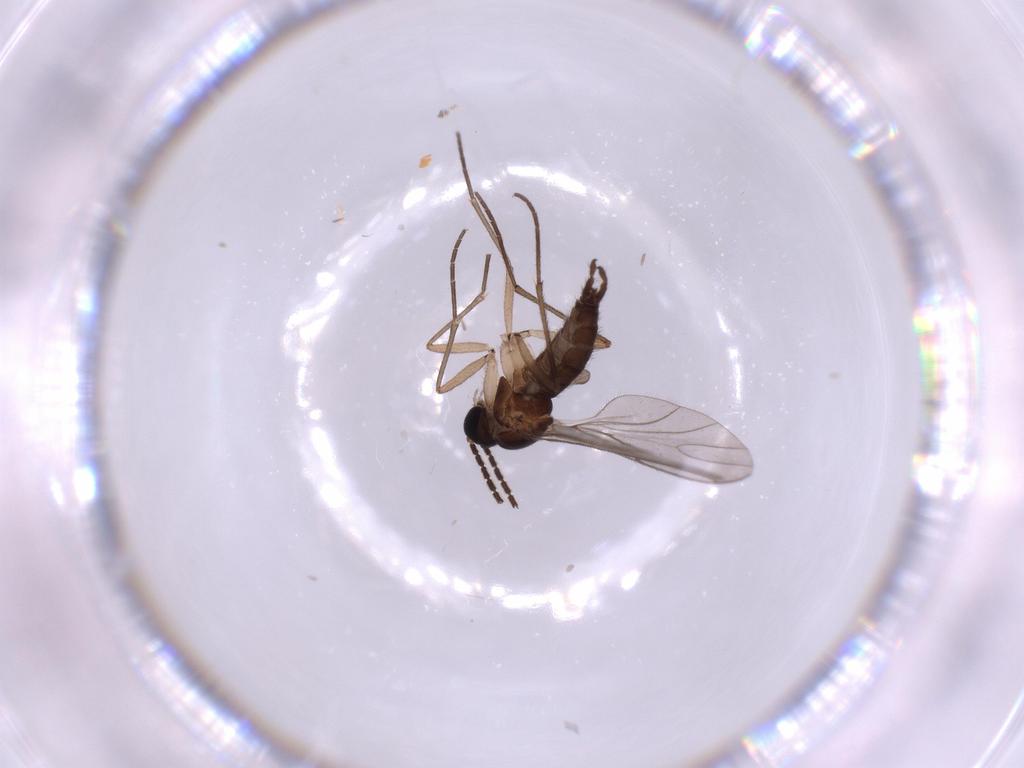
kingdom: Animalia
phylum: Arthropoda
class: Insecta
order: Diptera
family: Sciaridae
